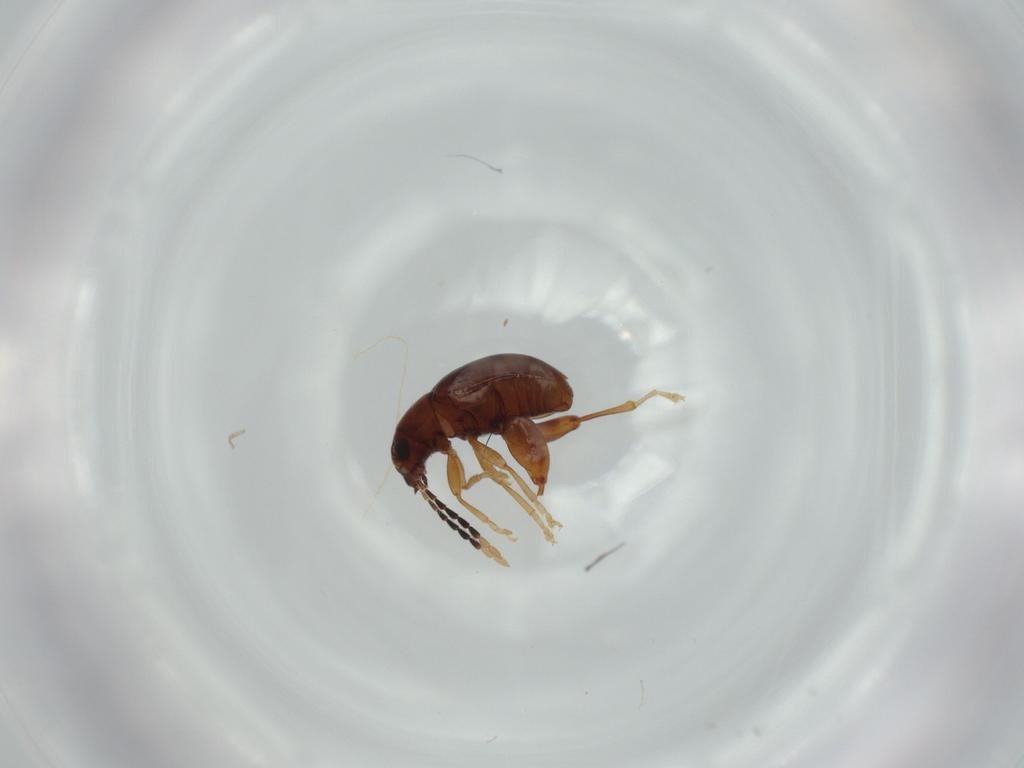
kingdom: Animalia
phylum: Arthropoda
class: Insecta
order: Coleoptera
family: Chrysomelidae
